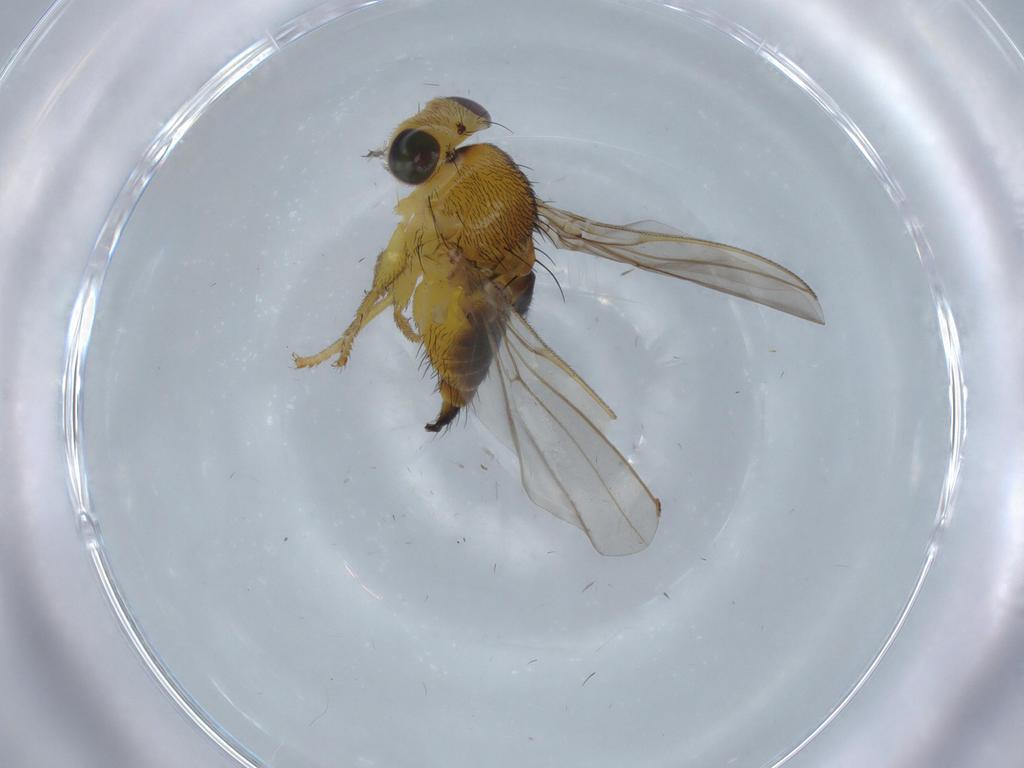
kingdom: Animalia
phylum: Arthropoda
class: Insecta
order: Diptera
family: Fergusoninidae
